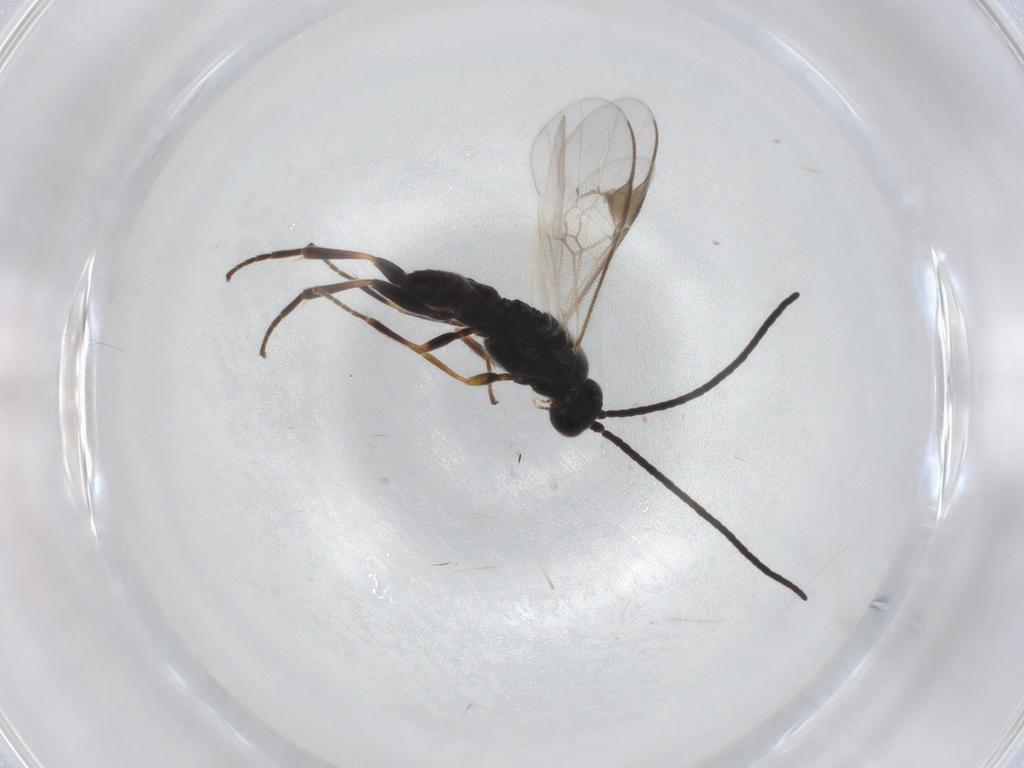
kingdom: Animalia
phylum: Arthropoda
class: Insecta
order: Hymenoptera
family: Braconidae
